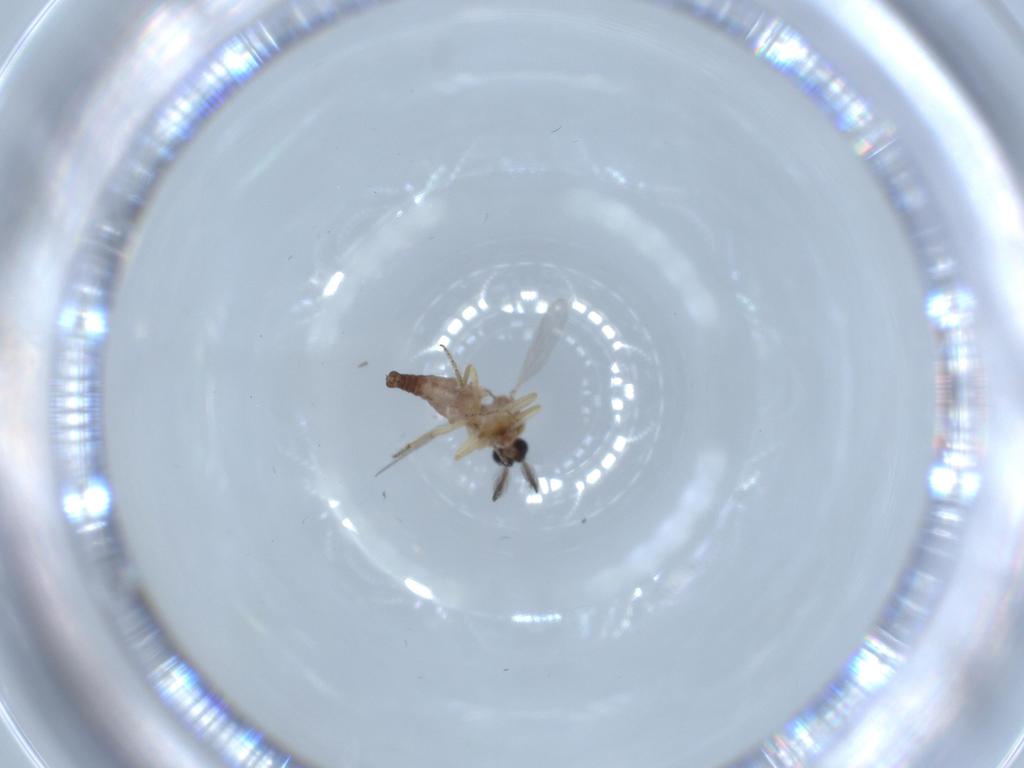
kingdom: Animalia
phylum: Arthropoda
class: Insecta
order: Diptera
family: Ceratopogonidae
